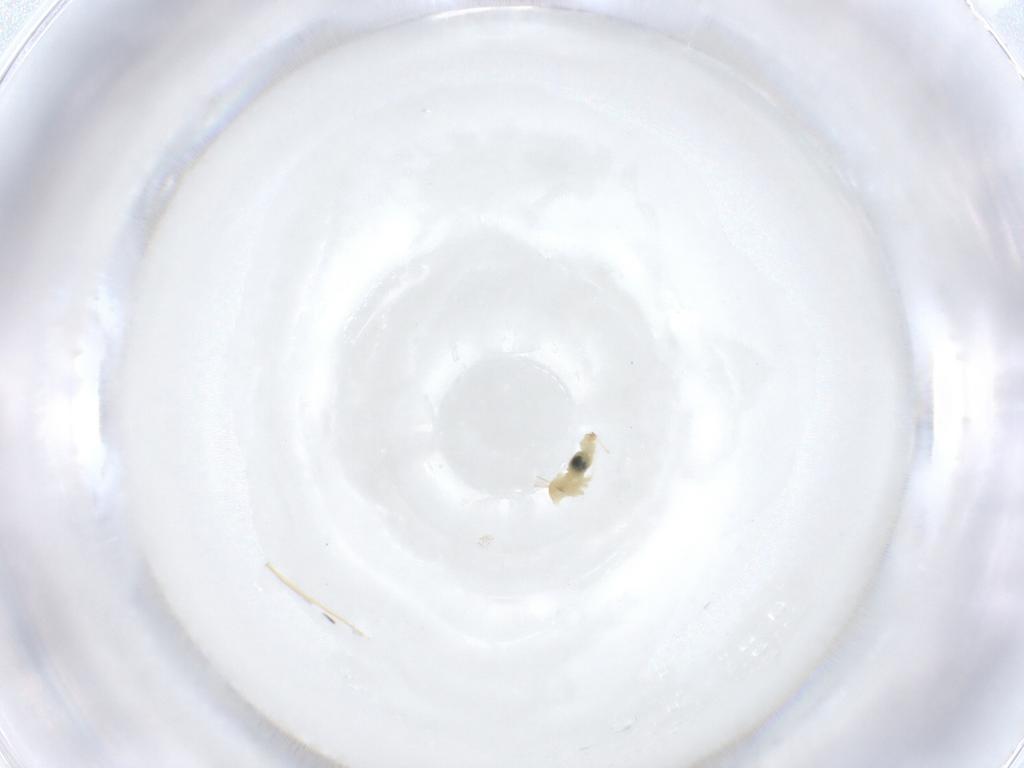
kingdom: Animalia
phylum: Arthropoda
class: Insecta
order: Diptera
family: Cecidomyiidae
